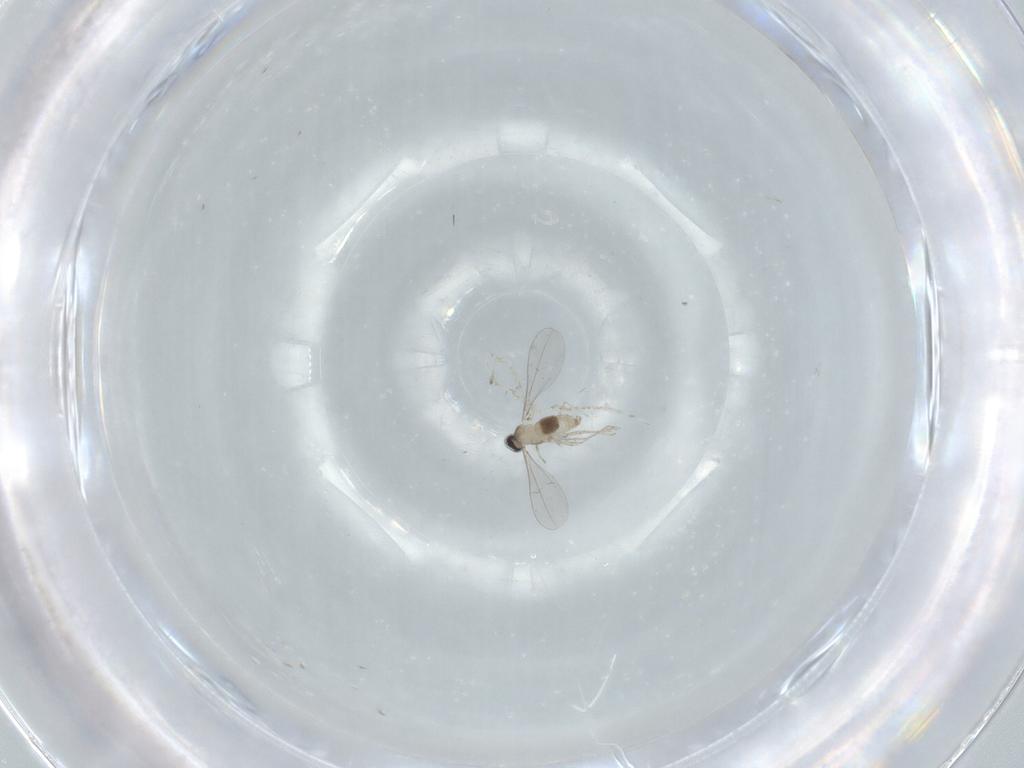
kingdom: Animalia
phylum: Arthropoda
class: Insecta
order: Diptera
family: Cecidomyiidae
